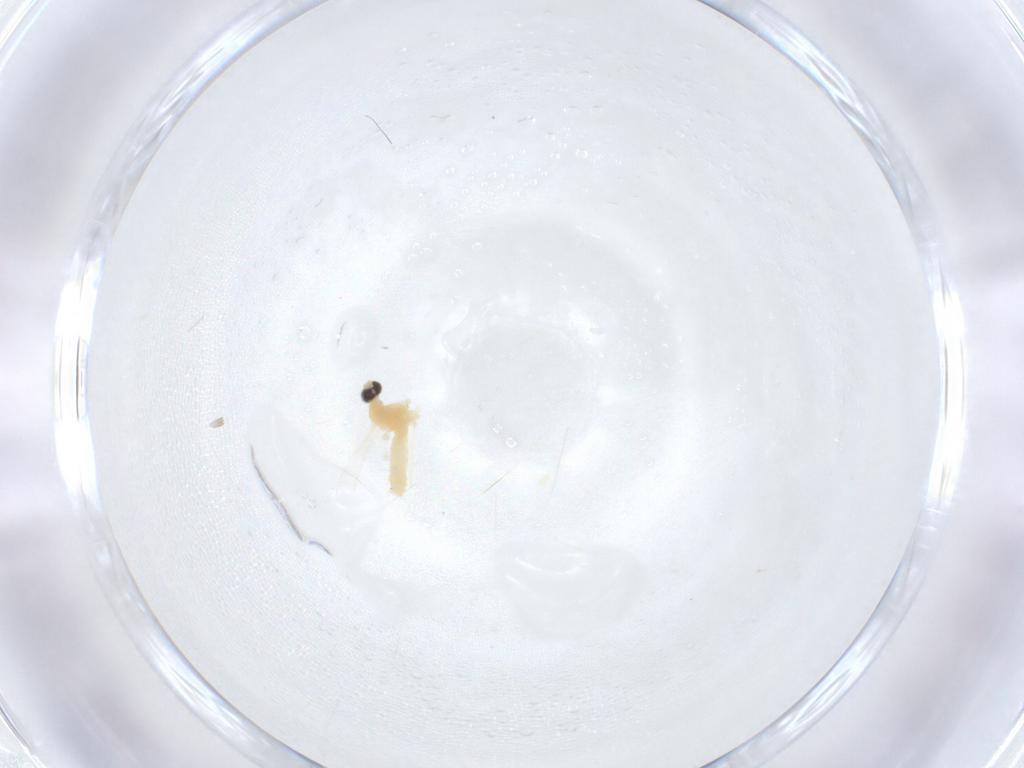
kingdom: Animalia
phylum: Arthropoda
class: Insecta
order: Diptera
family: Cecidomyiidae
